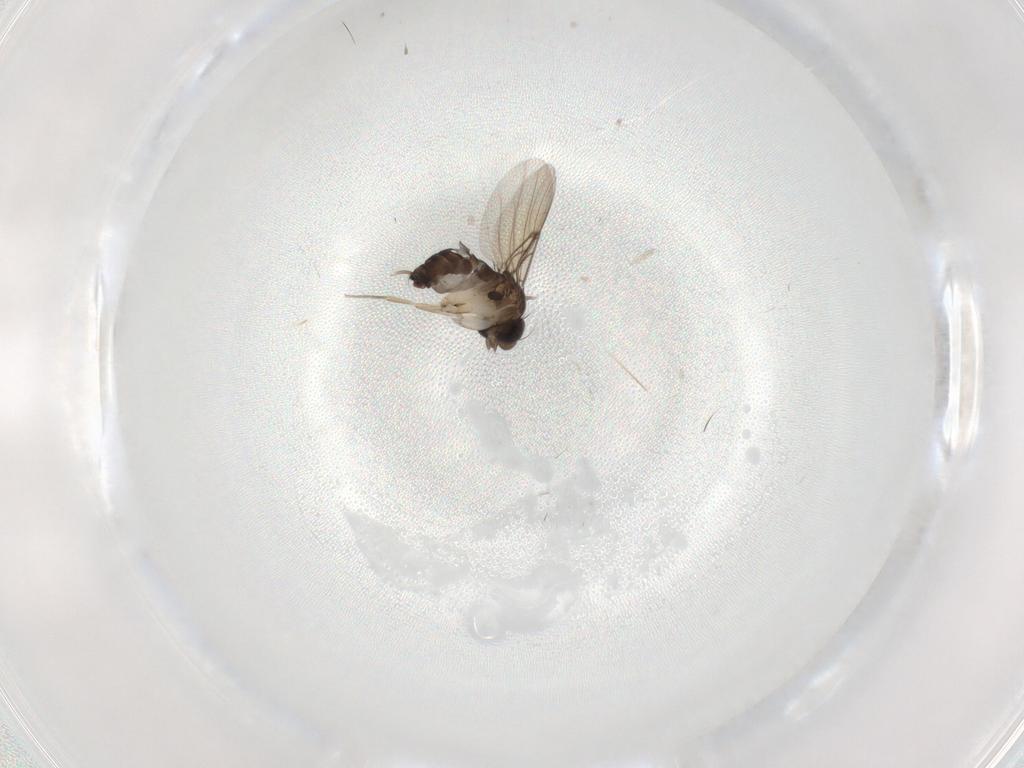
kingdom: Animalia
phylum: Arthropoda
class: Insecta
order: Diptera
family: Phoridae
